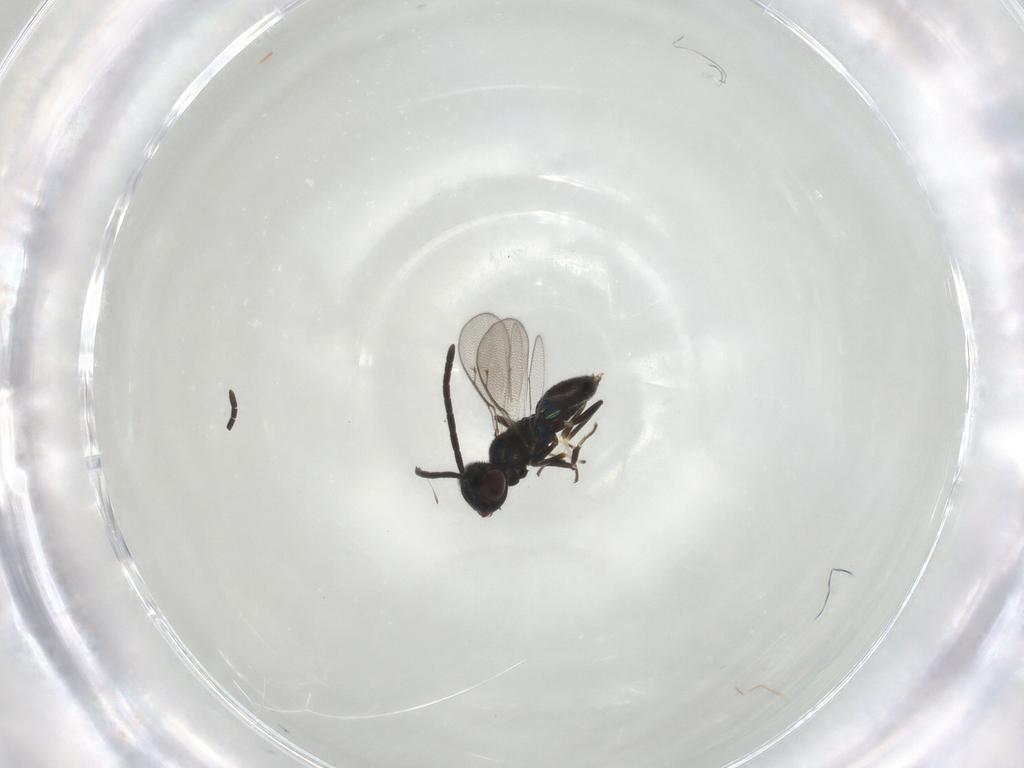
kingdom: Animalia
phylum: Arthropoda
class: Insecta
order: Hymenoptera
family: Eupelmidae
